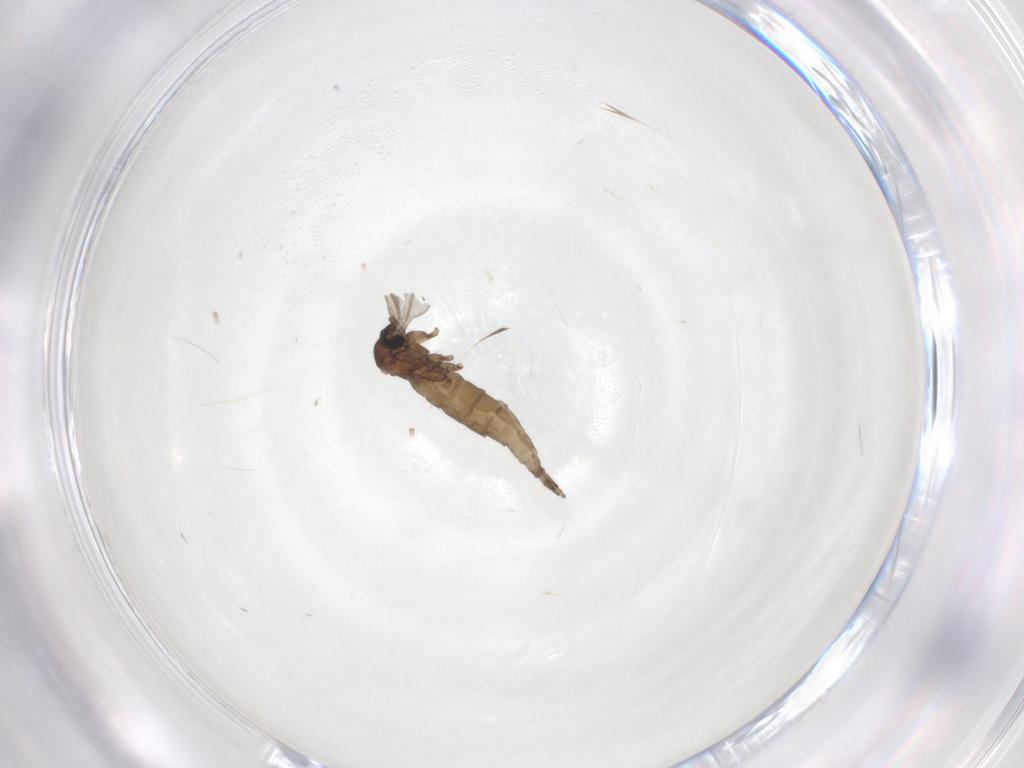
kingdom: Animalia
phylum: Arthropoda
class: Insecta
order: Diptera
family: Sciaridae
